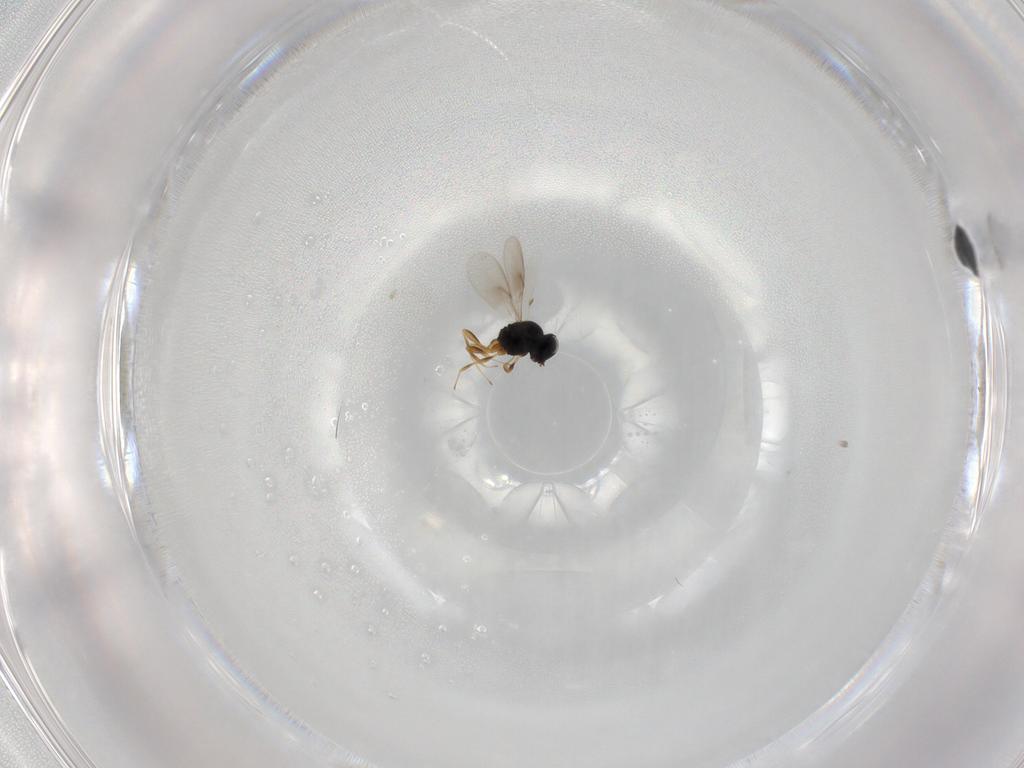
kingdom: Animalia
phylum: Arthropoda
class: Insecta
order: Hymenoptera
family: Scelionidae
